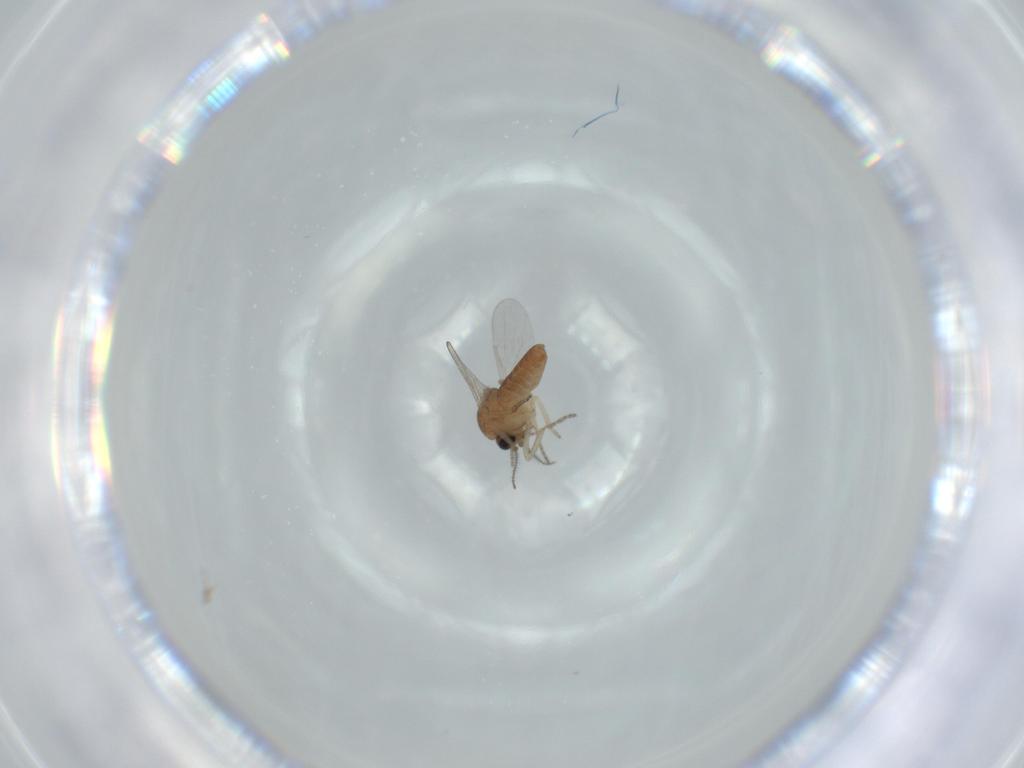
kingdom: Animalia
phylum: Arthropoda
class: Insecta
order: Diptera
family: Ceratopogonidae
